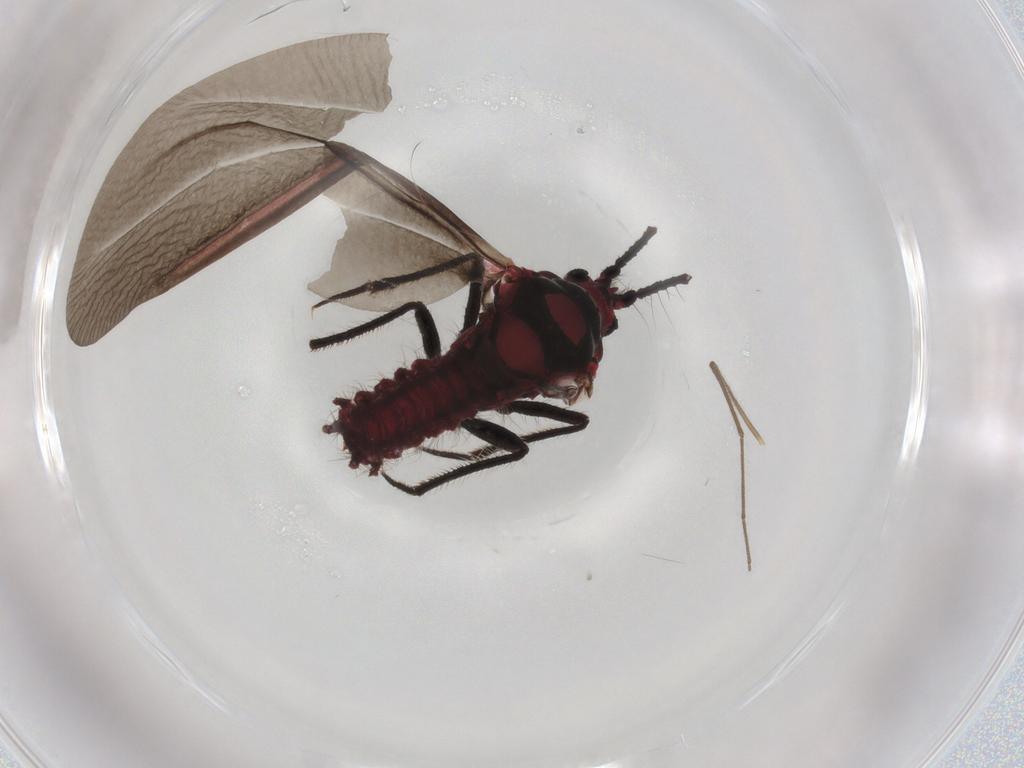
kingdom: Animalia
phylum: Arthropoda
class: Insecta
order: Diptera
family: Chironomidae
